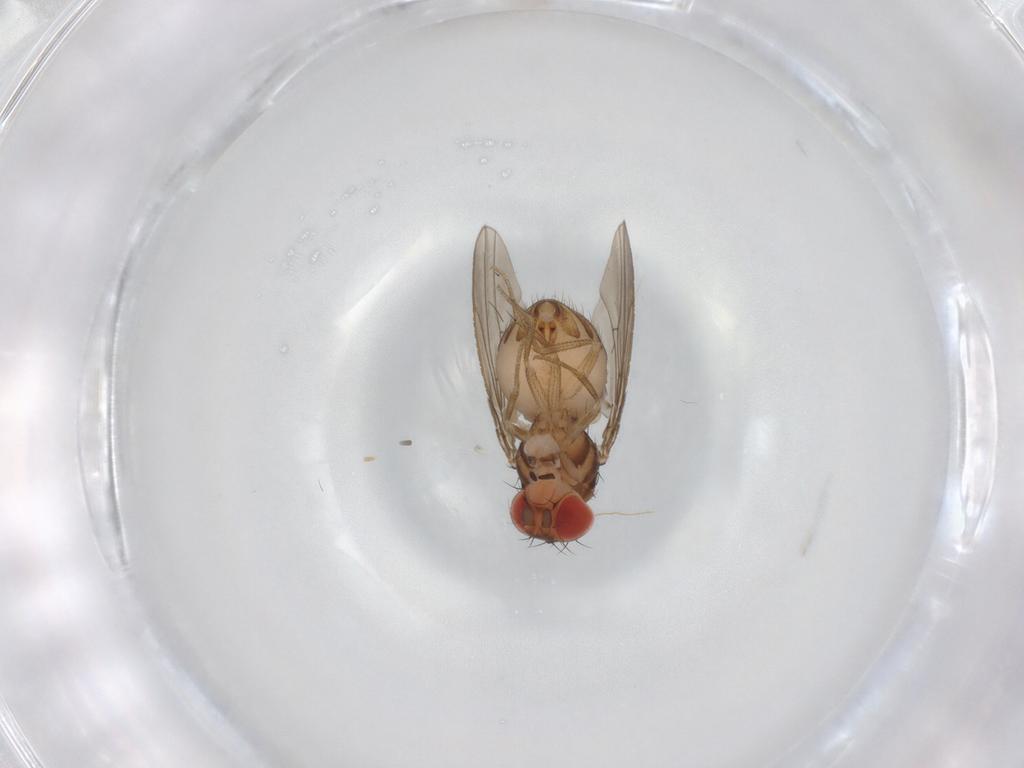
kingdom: Animalia
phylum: Arthropoda
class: Insecta
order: Diptera
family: Drosophilidae
